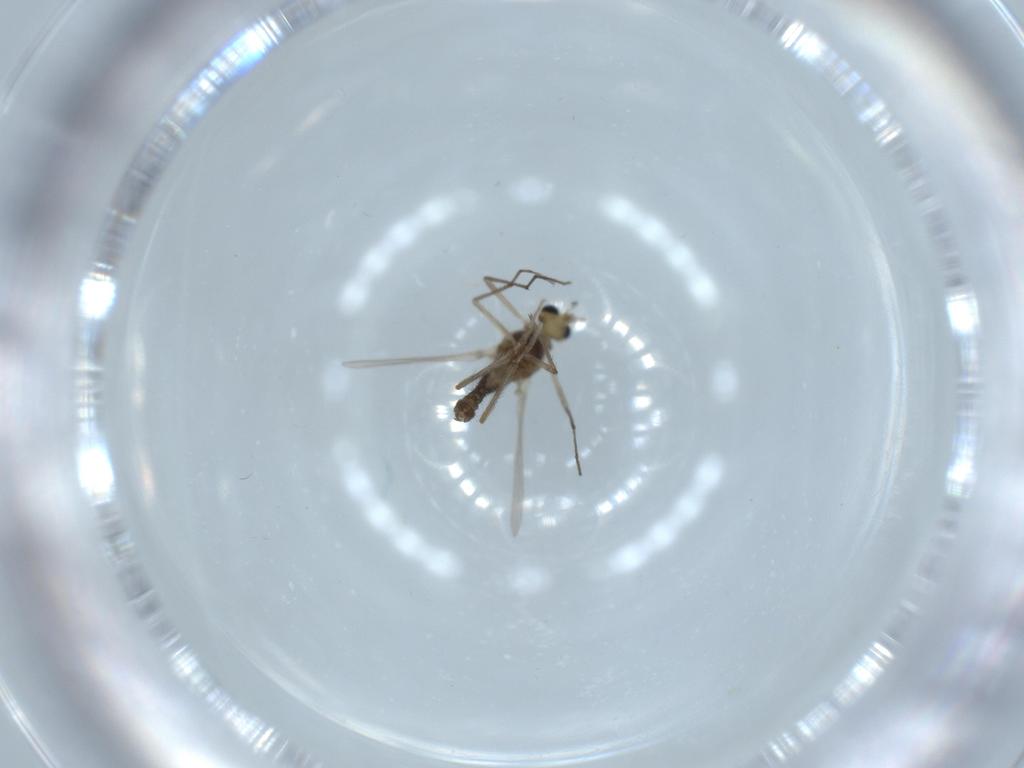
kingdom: Animalia
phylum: Arthropoda
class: Insecta
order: Diptera
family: Chironomidae
